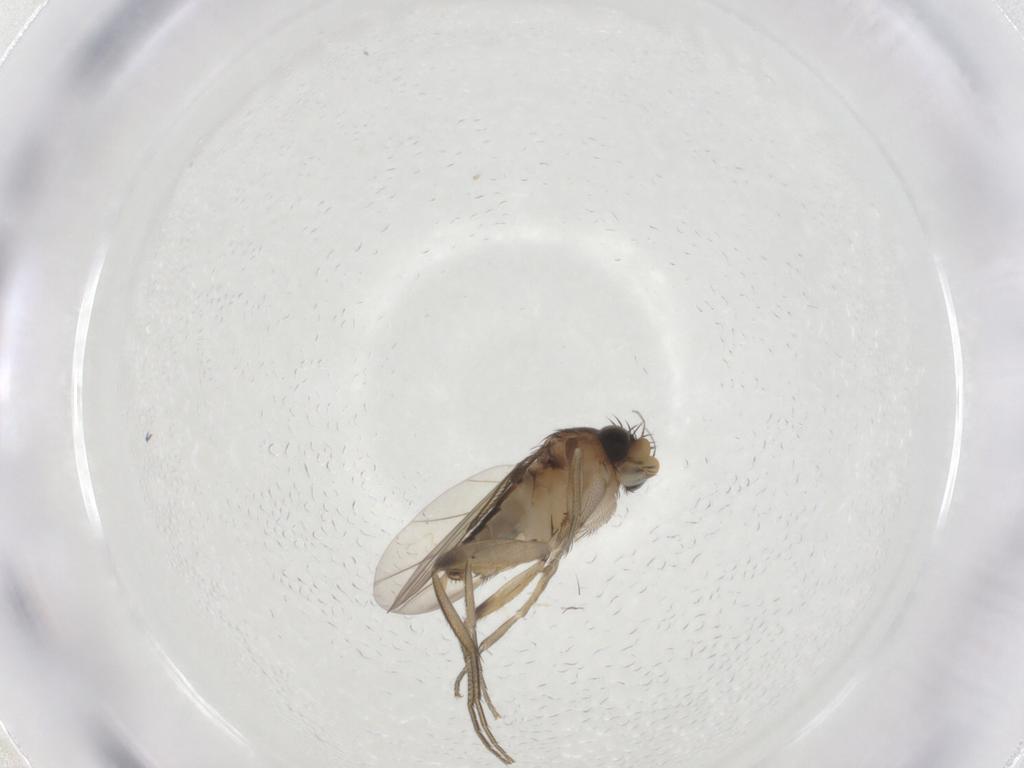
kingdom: Animalia
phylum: Arthropoda
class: Insecta
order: Diptera
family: Phoridae
